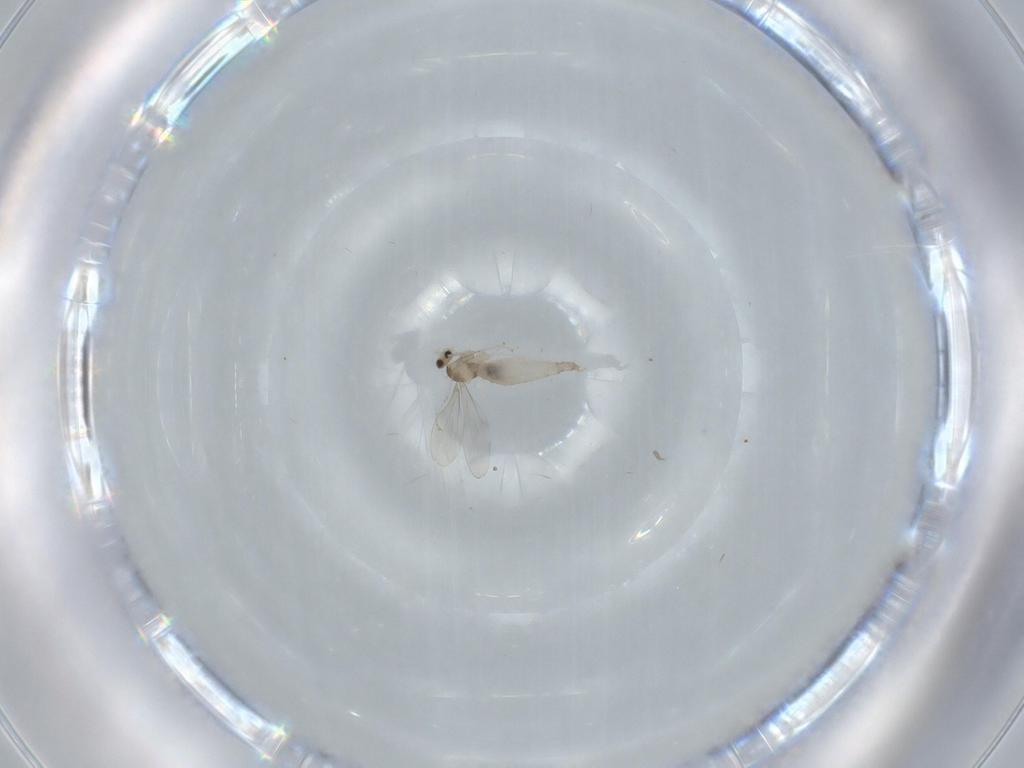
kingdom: Animalia
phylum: Arthropoda
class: Insecta
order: Diptera
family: Cecidomyiidae
